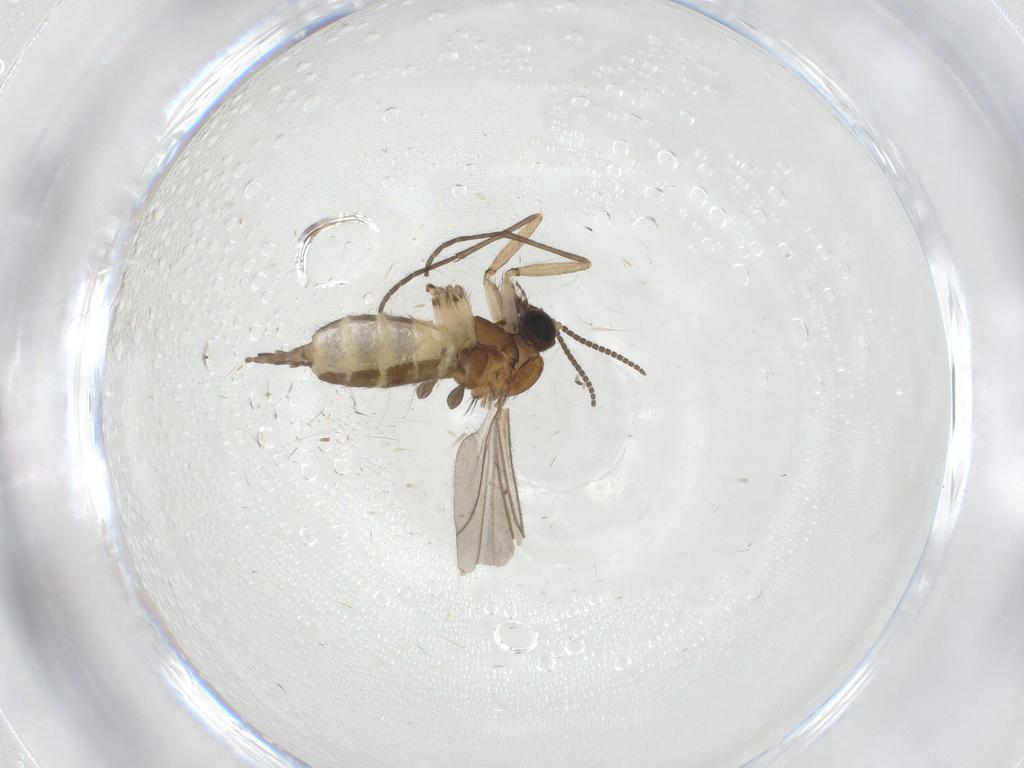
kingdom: Animalia
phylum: Arthropoda
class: Insecta
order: Diptera
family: Sciaridae
